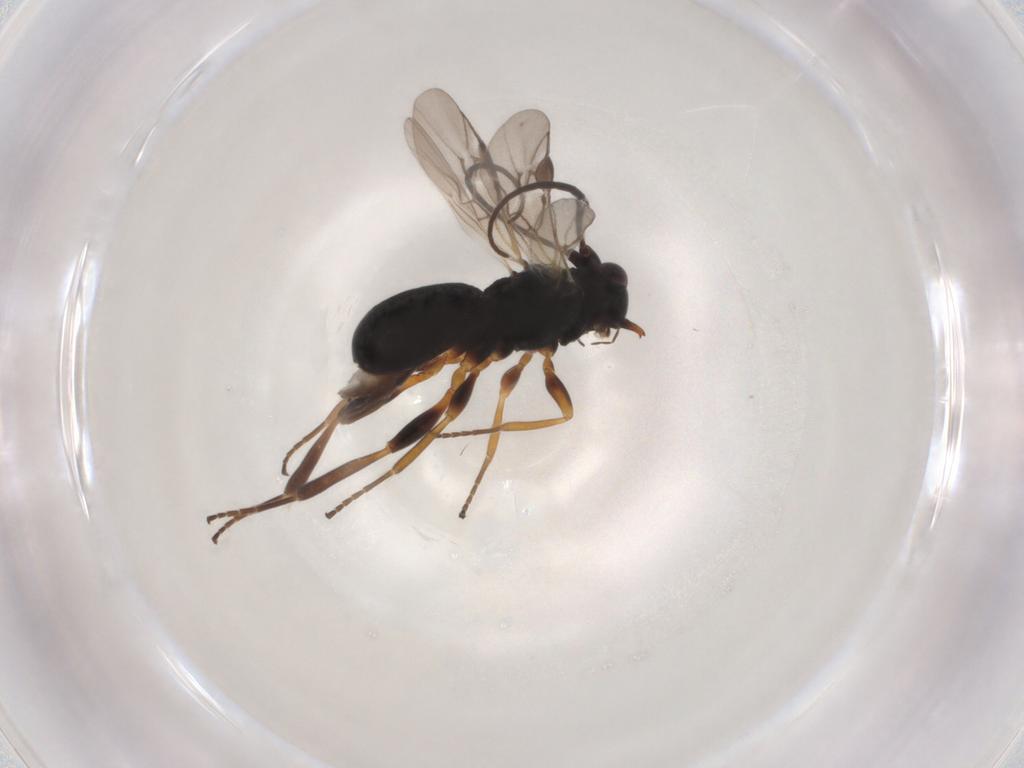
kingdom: Animalia
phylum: Arthropoda
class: Insecta
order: Hymenoptera
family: Braconidae
